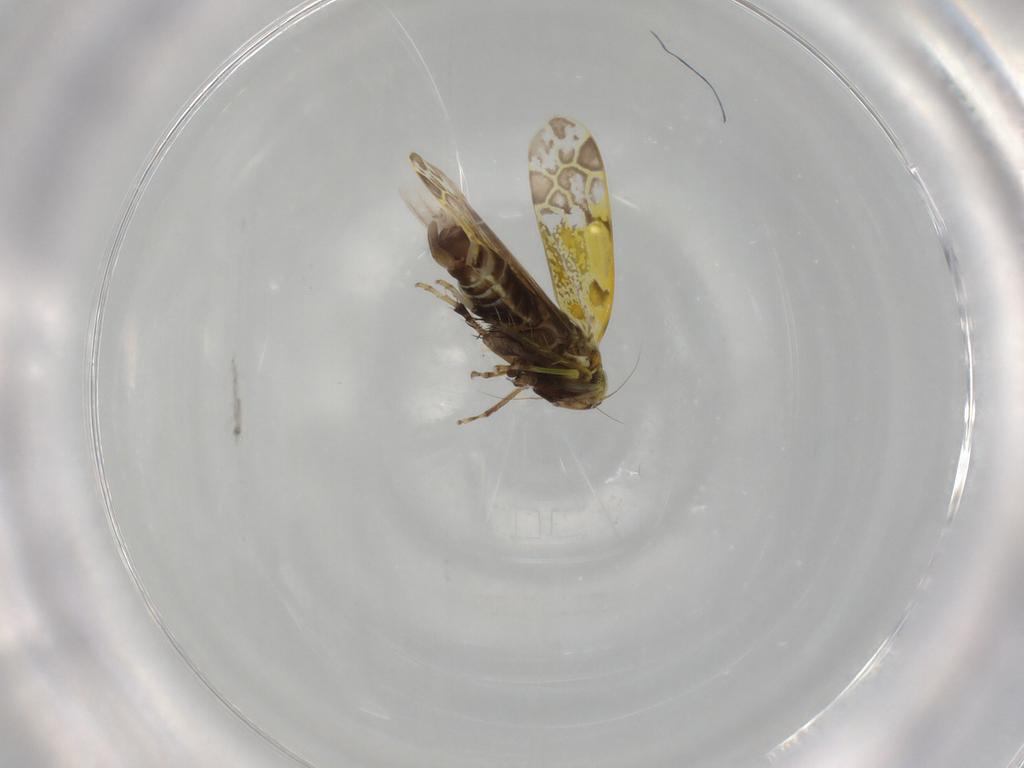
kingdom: Animalia
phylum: Arthropoda
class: Insecta
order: Hemiptera
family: Cicadellidae
